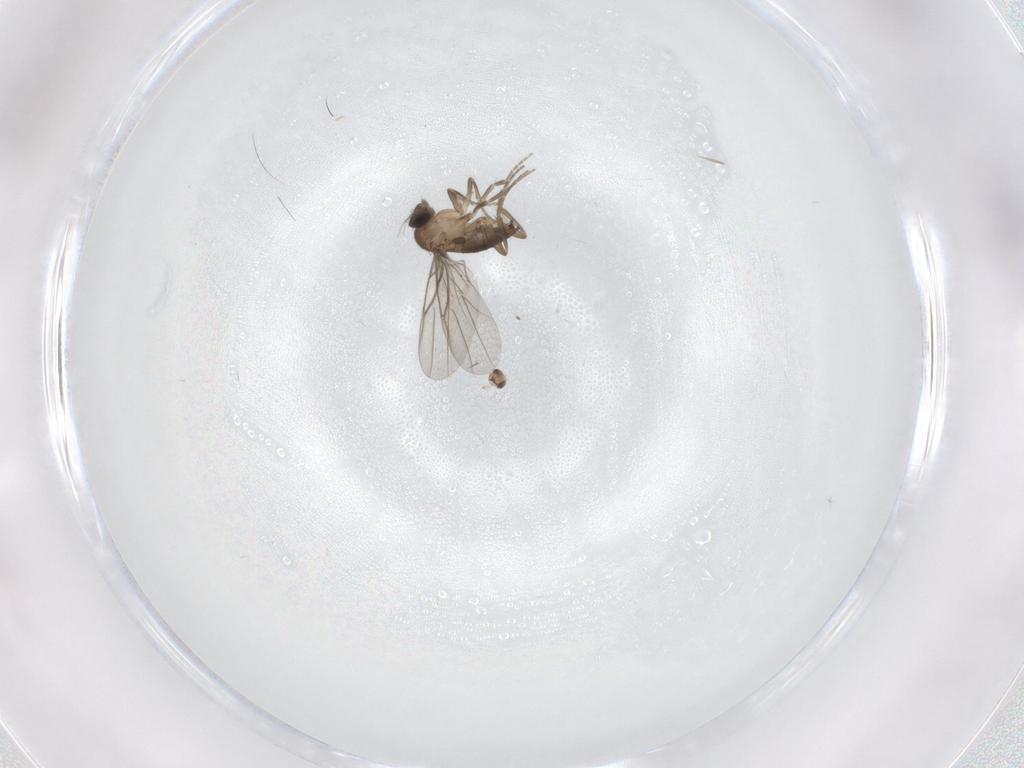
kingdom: Animalia
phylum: Arthropoda
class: Insecta
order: Diptera
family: Cecidomyiidae
